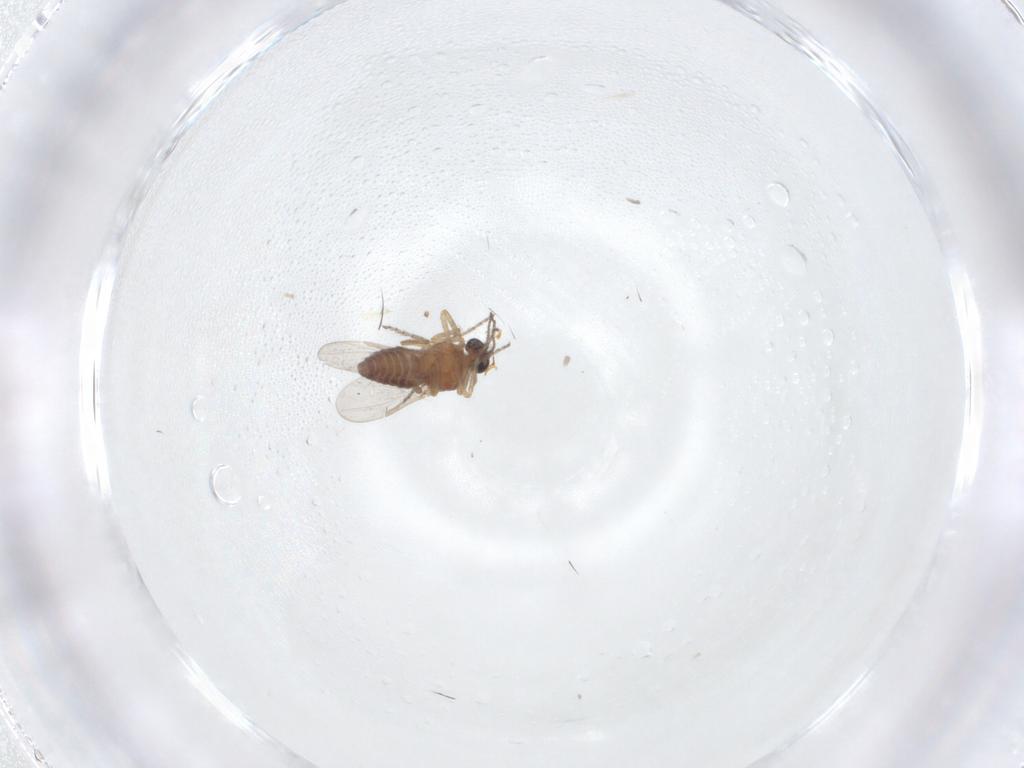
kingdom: Animalia
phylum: Arthropoda
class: Insecta
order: Diptera
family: Ceratopogonidae
